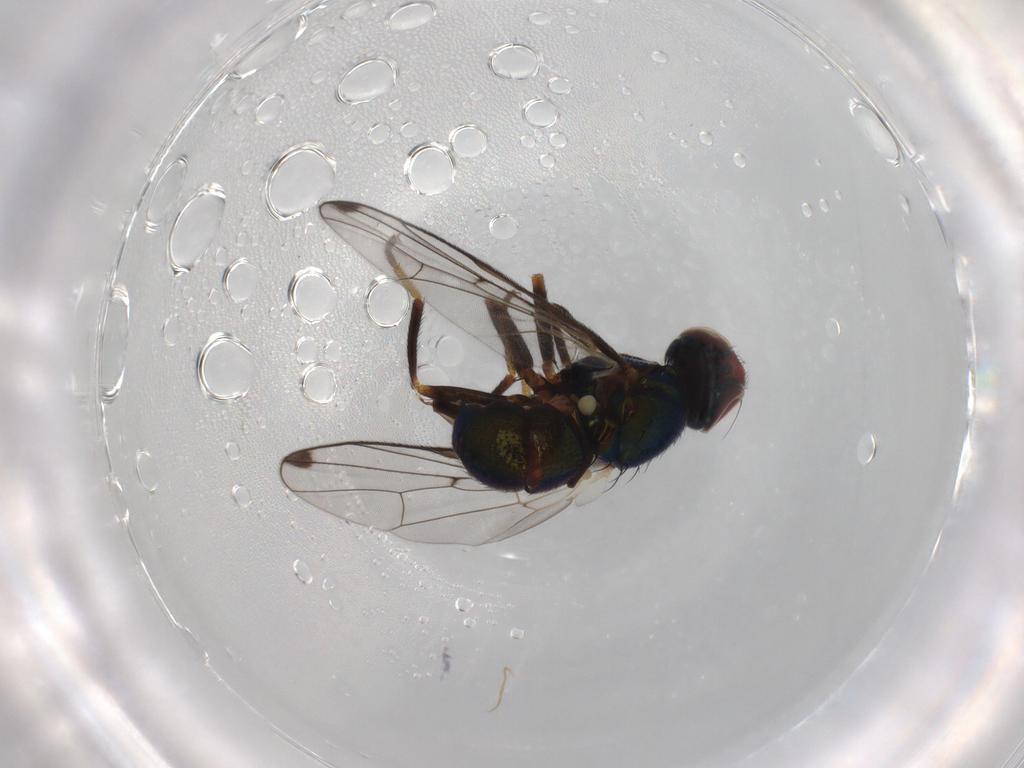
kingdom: Animalia
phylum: Arthropoda
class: Insecta
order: Diptera
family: Platystomatidae
